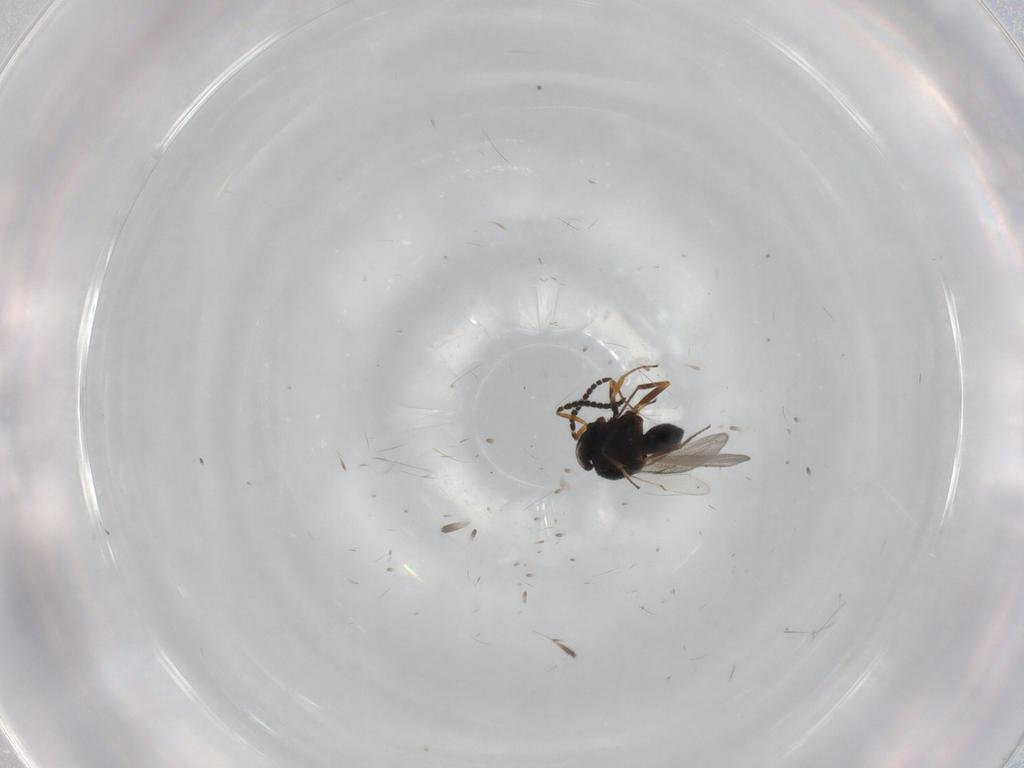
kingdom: Animalia
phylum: Arthropoda
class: Insecta
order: Hymenoptera
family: Scelionidae
